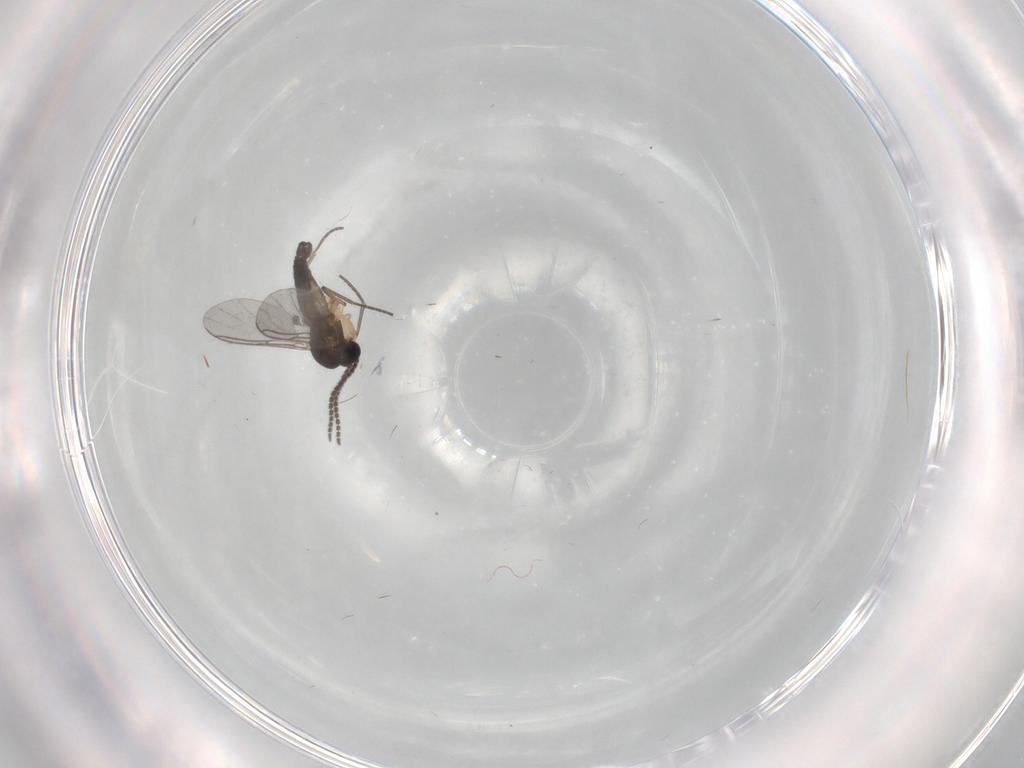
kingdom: Animalia
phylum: Arthropoda
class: Insecta
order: Diptera
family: Sciaridae
